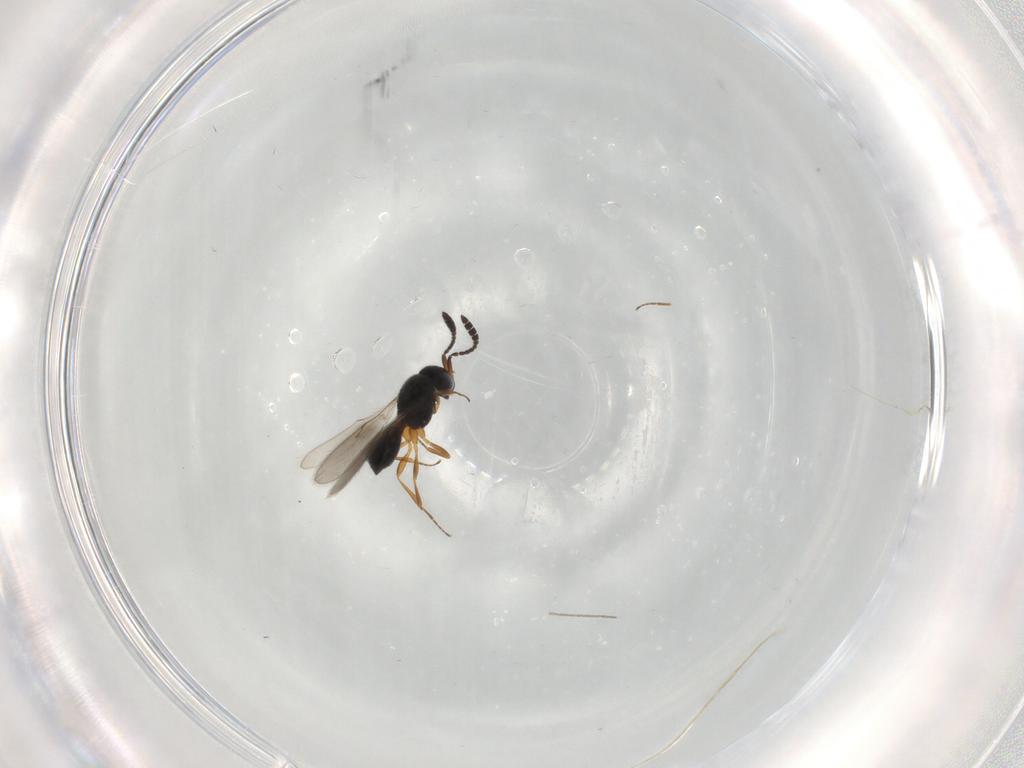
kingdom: Animalia
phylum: Arthropoda
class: Insecta
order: Hymenoptera
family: Scelionidae
